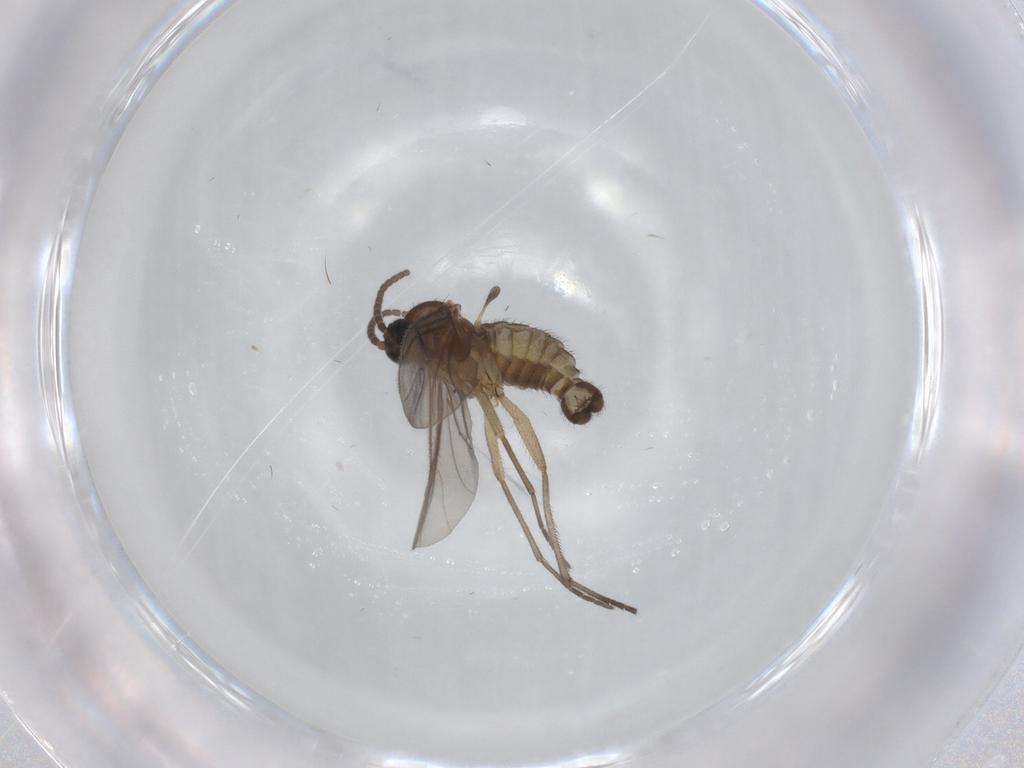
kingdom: Animalia
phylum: Arthropoda
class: Insecta
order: Diptera
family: Sciaridae
